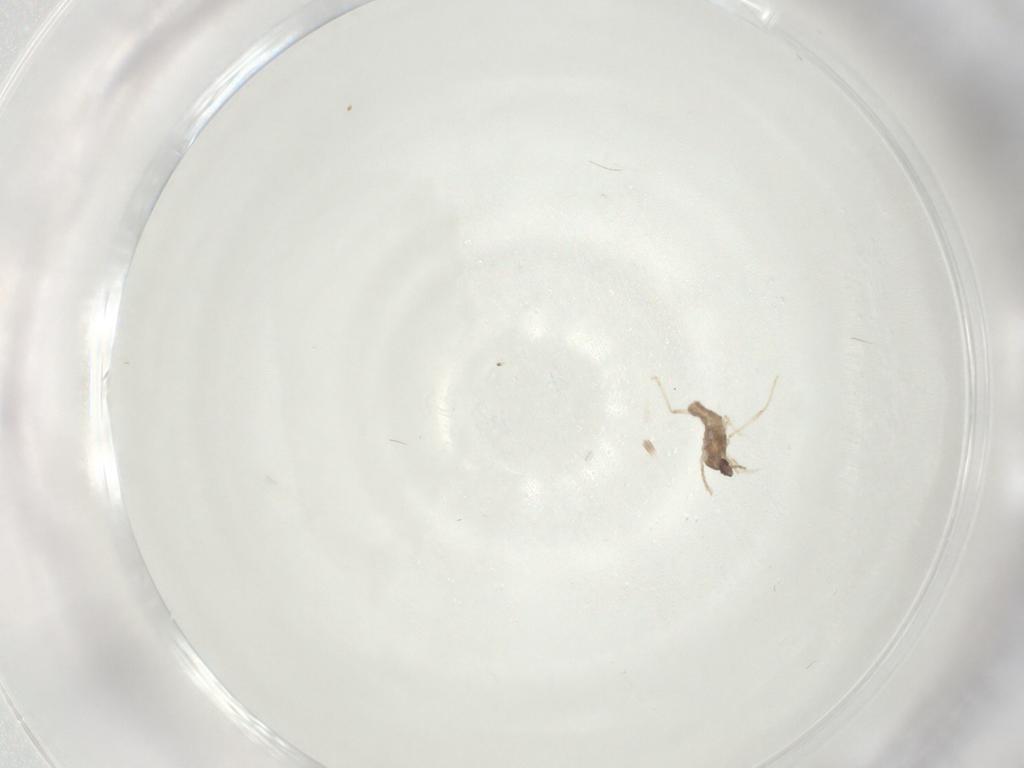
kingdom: Animalia
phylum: Arthropoda
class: Insecta
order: Diptera
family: Cecidomyiidae
